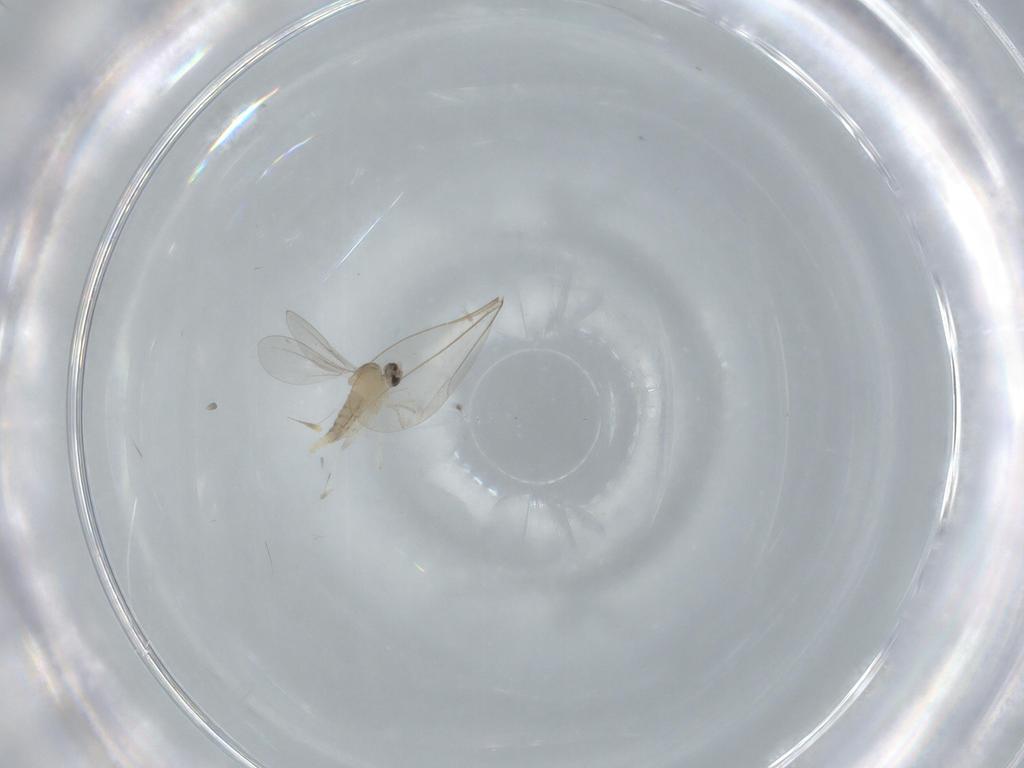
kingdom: Animalia
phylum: Arthropoda
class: Insecta
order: Diptera
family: Cecidomyiidae
